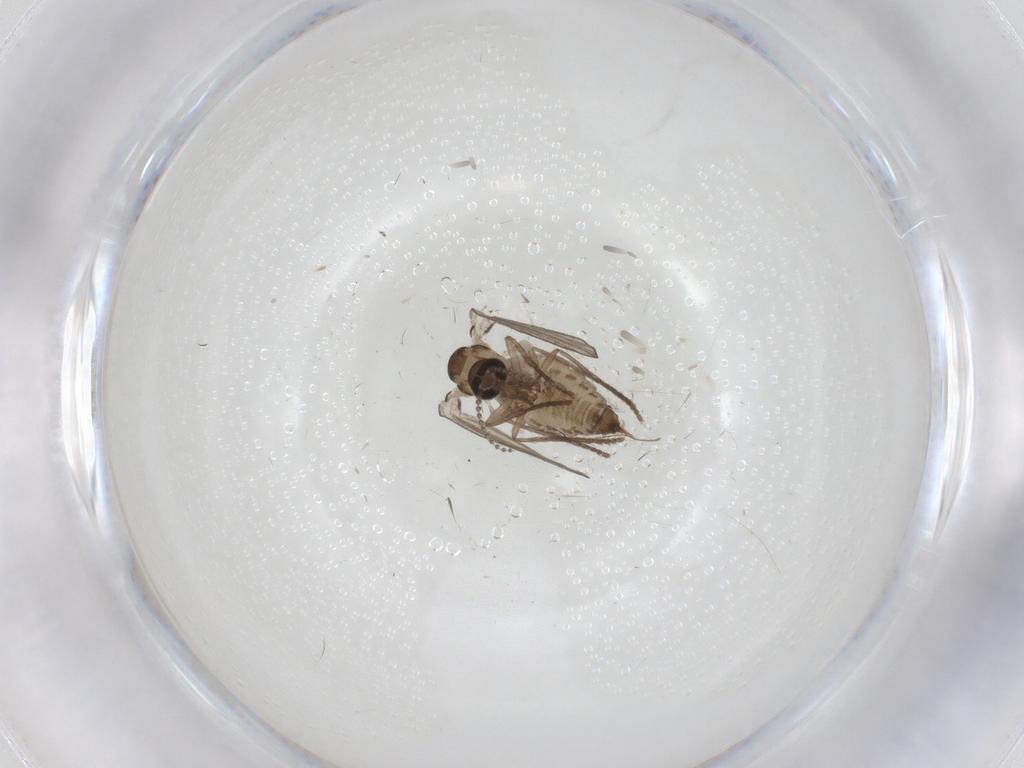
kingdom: Animalia
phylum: Arthropoda
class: Insecta
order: Diptera
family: Psychodidae
